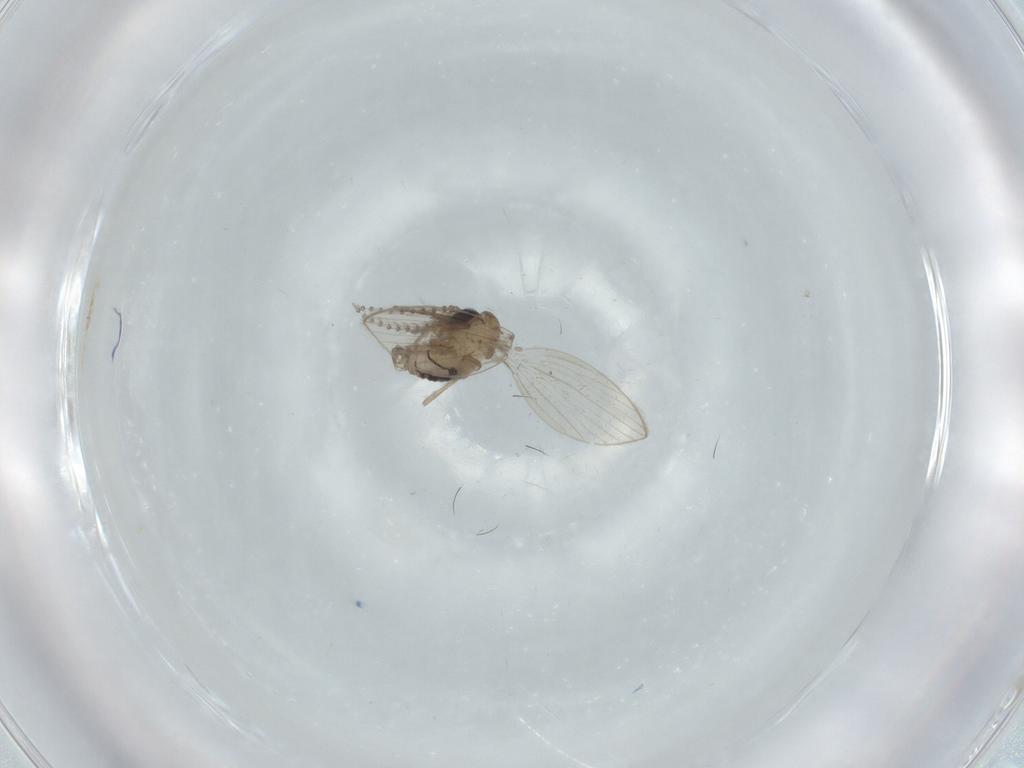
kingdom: Animalia
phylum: Arthropoda
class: Insecta
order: Diptera
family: Psychodidae
